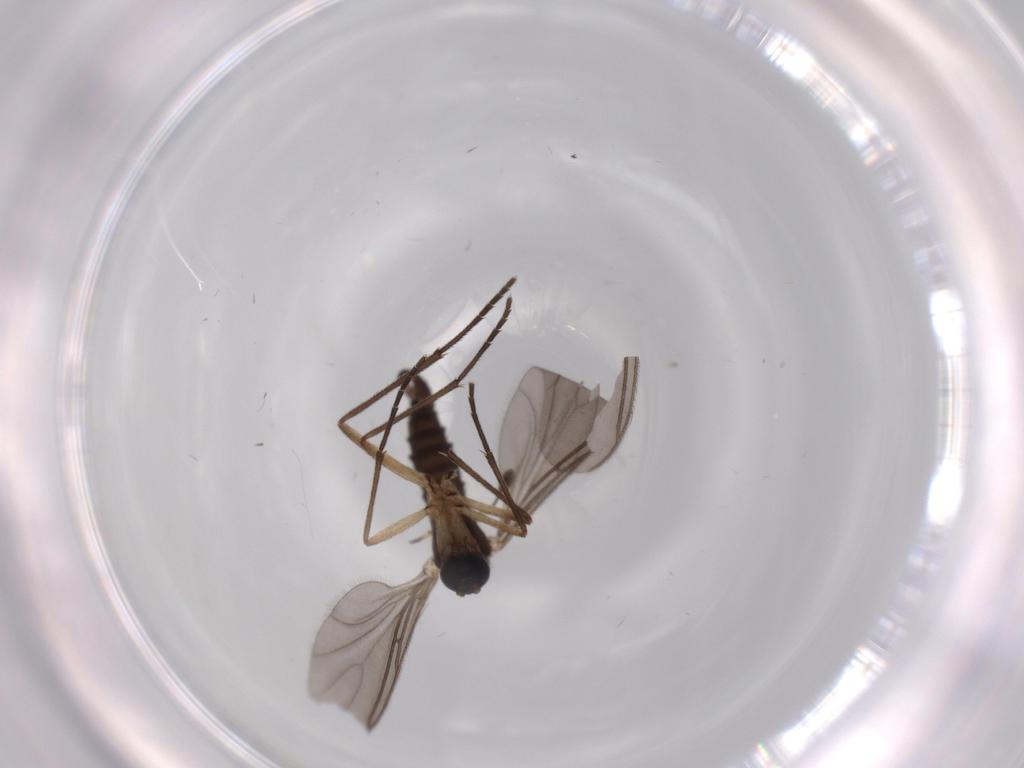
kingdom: Animalia
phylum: Arthropoda
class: Insecta
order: Diptera
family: Sciaridae
